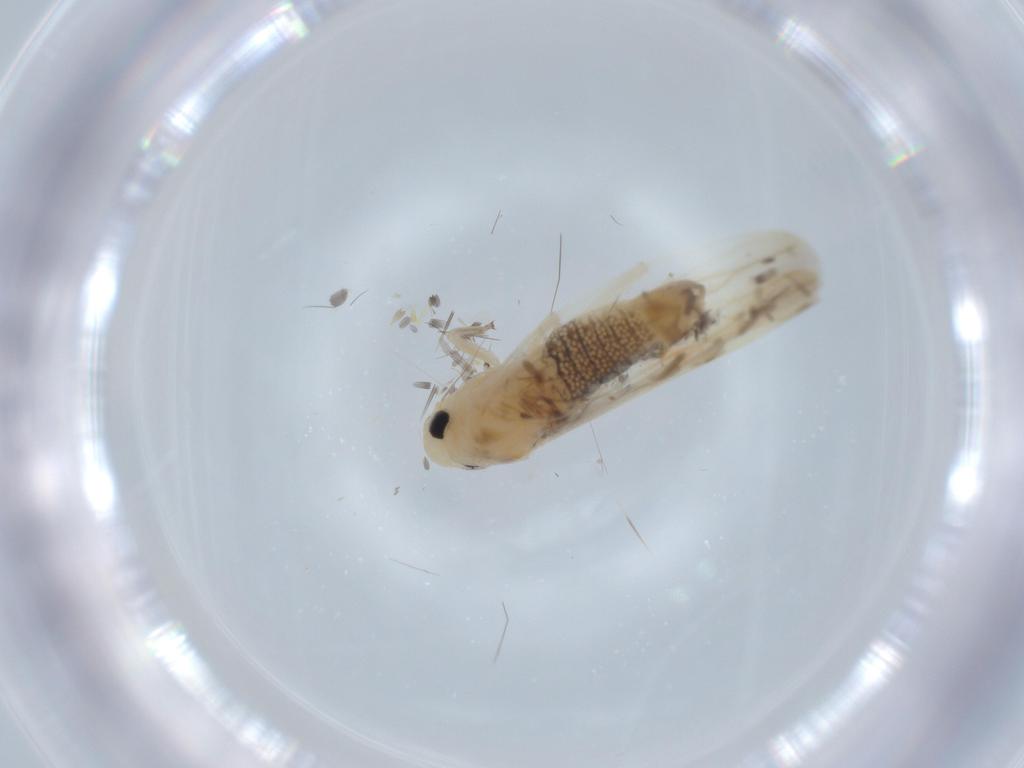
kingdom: Animalia
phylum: Arthropoda
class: Insecta
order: Hemiptera
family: Cicadellidae
